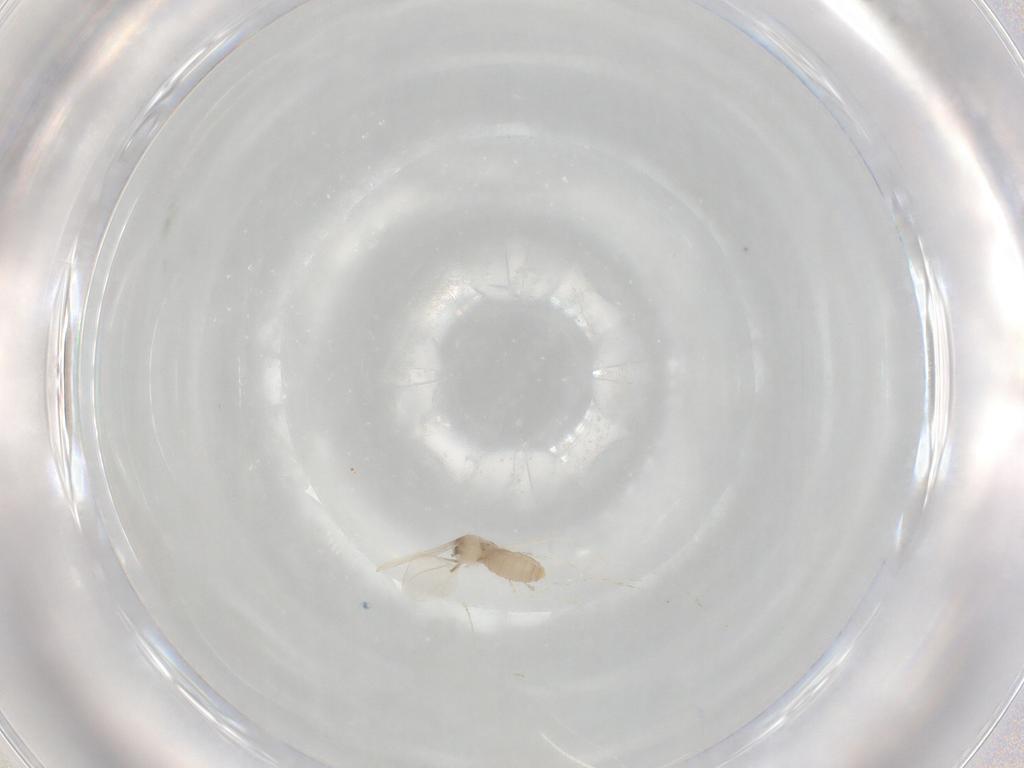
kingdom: Animalia
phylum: Arthropoda
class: Insecta
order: Diptera
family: Cecidomyiidae
